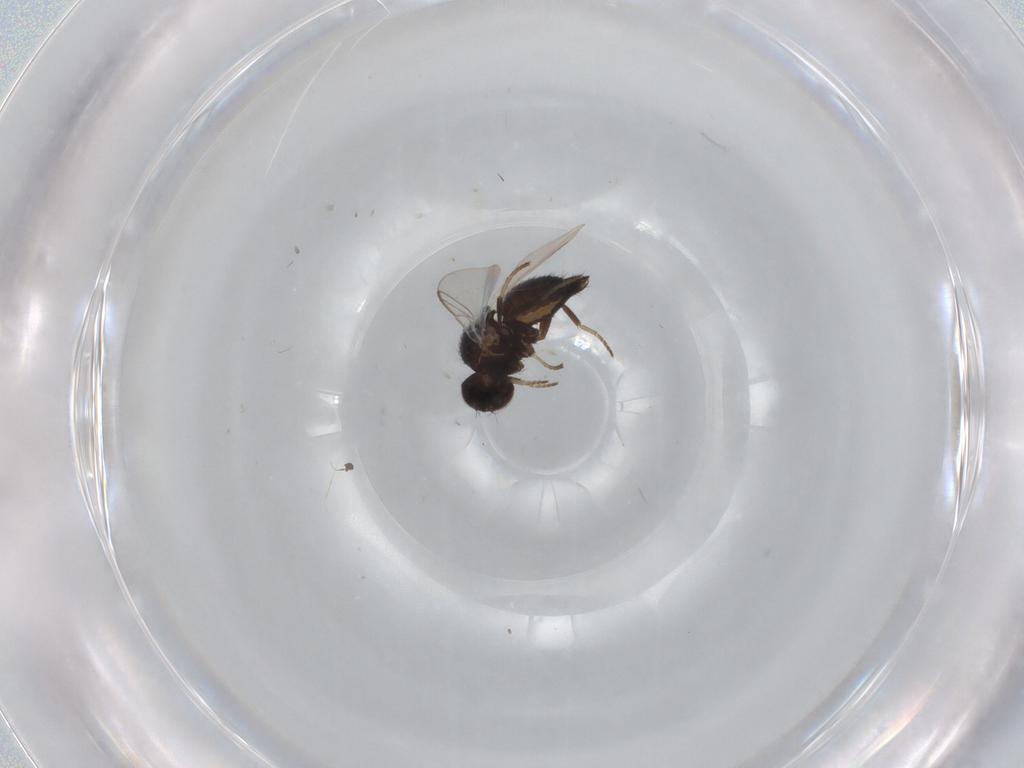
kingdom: Animalia
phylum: Arthropoda
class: Insecta
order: Diptera
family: Agromyzidae
